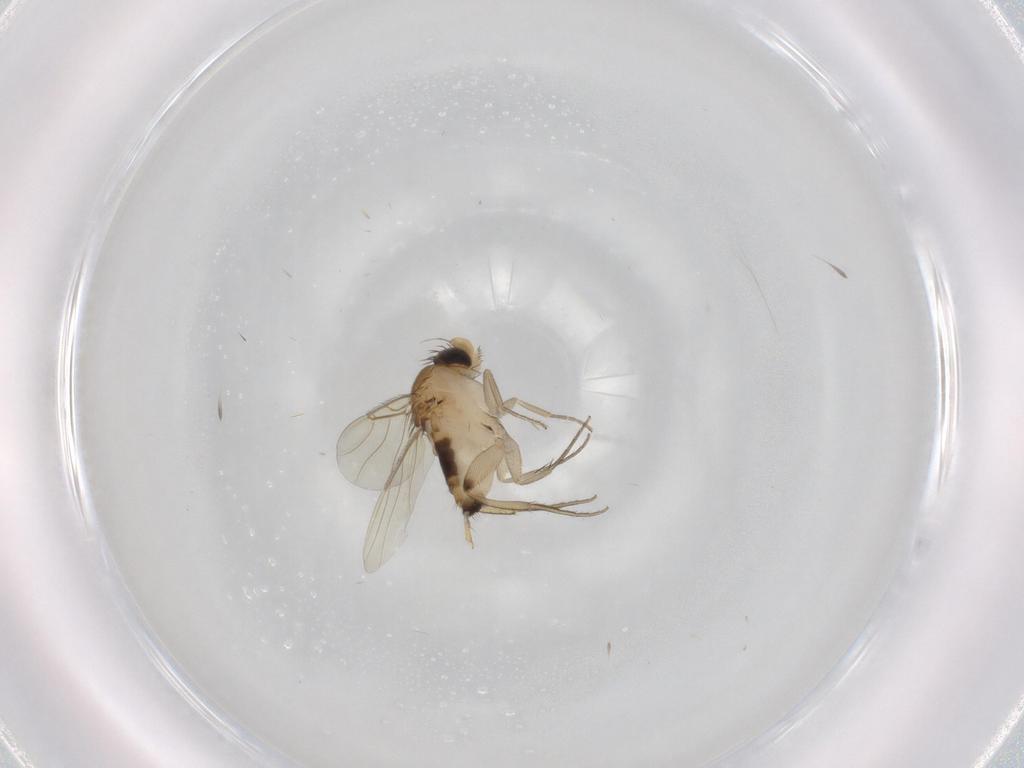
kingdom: Animalia
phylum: Arthropoda
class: Insecta
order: Diptera
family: Phoridae
